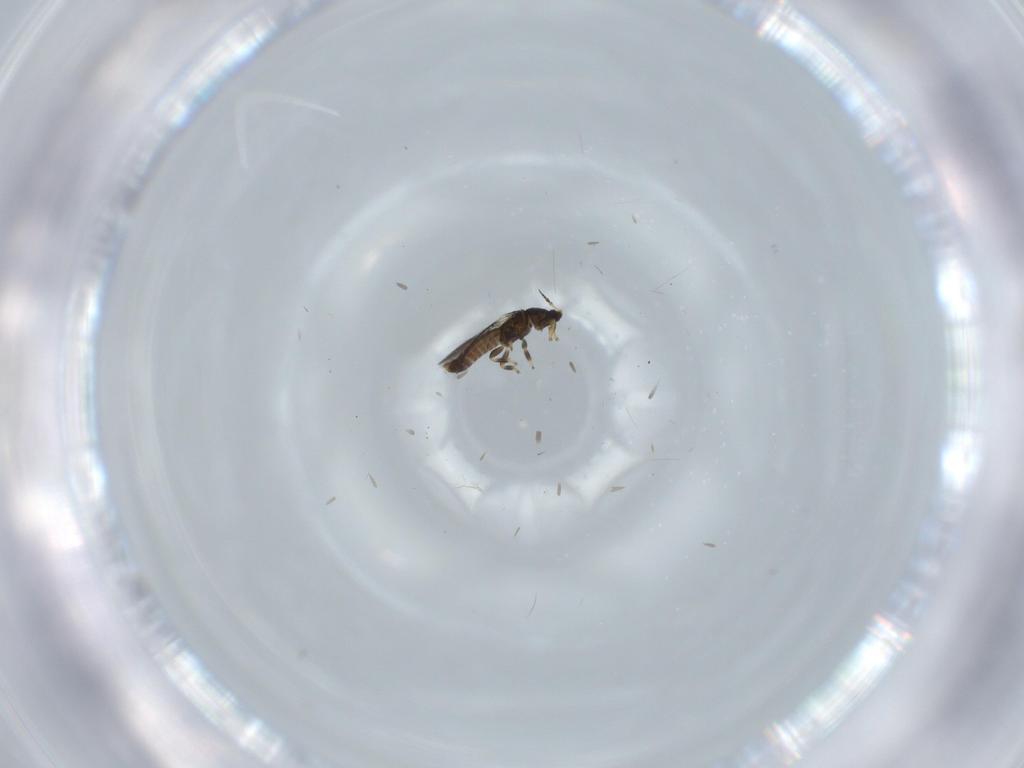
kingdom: Animalia
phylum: Arthropoda
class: Insecta
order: Thysanoptera
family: Heterothripidae
